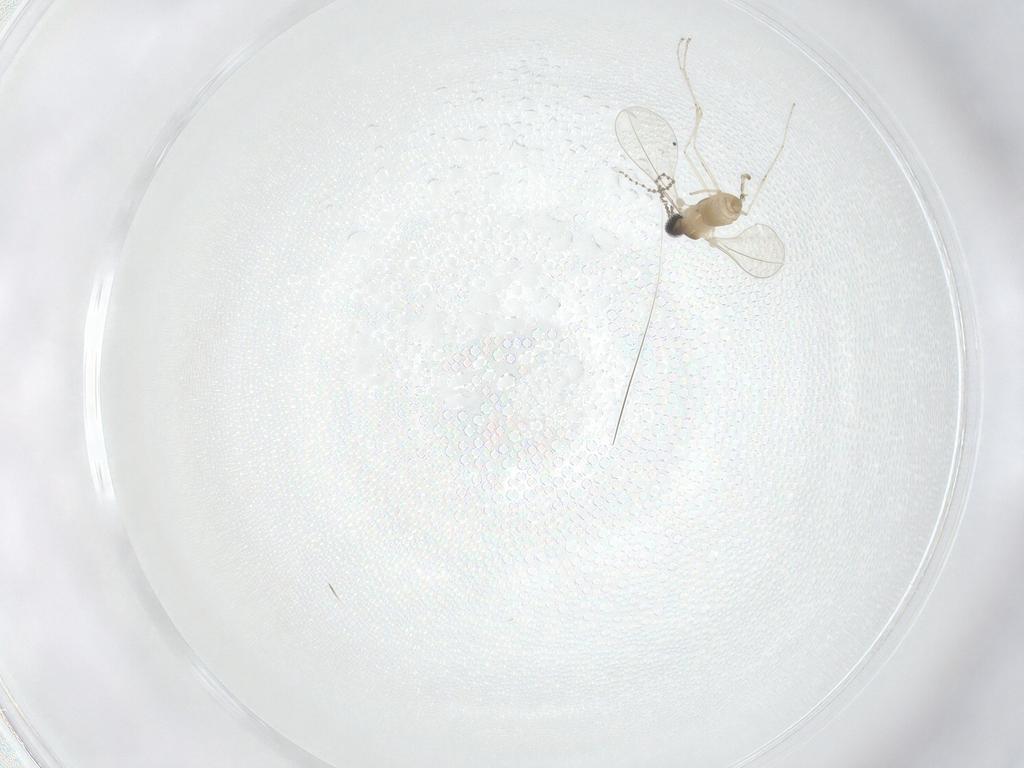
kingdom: Animalia
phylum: Arthropoda
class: Insecta
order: Diptera
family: Cecidomyiidae
